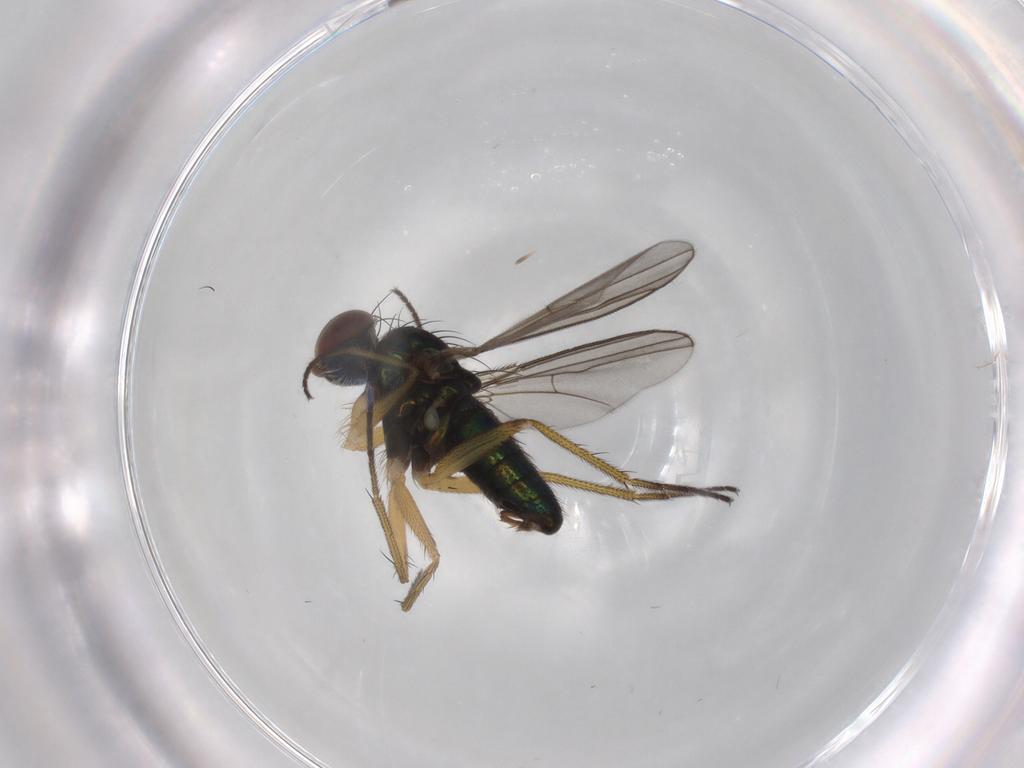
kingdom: Animalia
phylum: Arthropoda
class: Insecta
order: Diptera
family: Dolichopodidae
